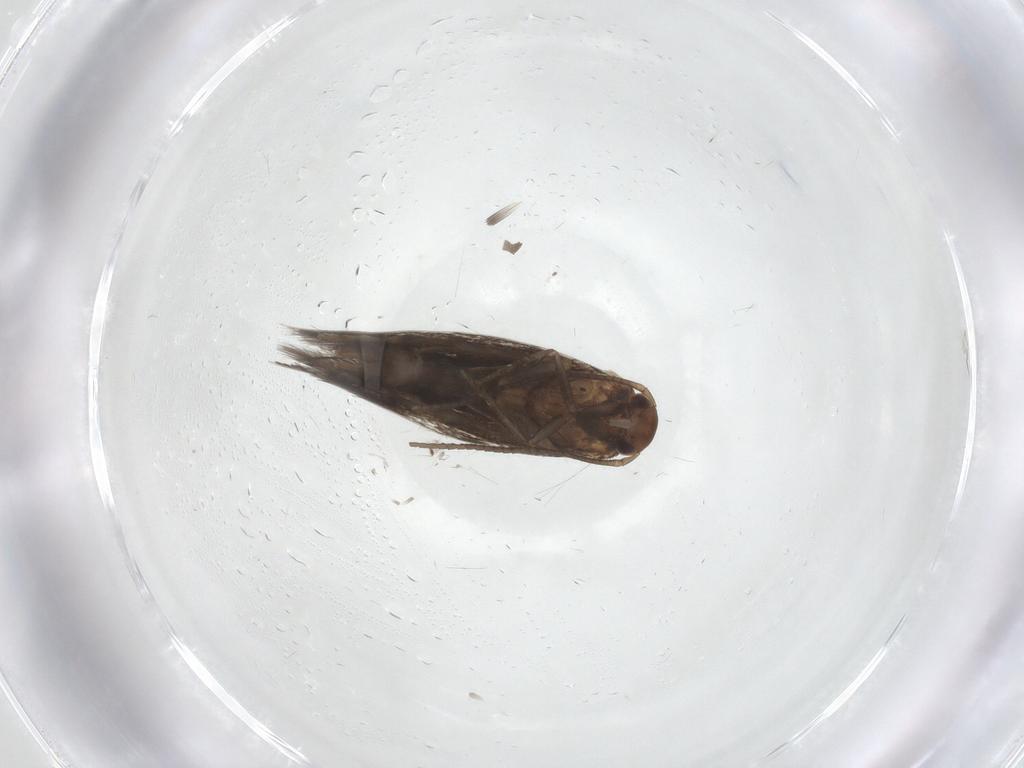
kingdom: Animalia
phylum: Arthropoda
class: Insecta
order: Lepidoptera
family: Elachistidae
